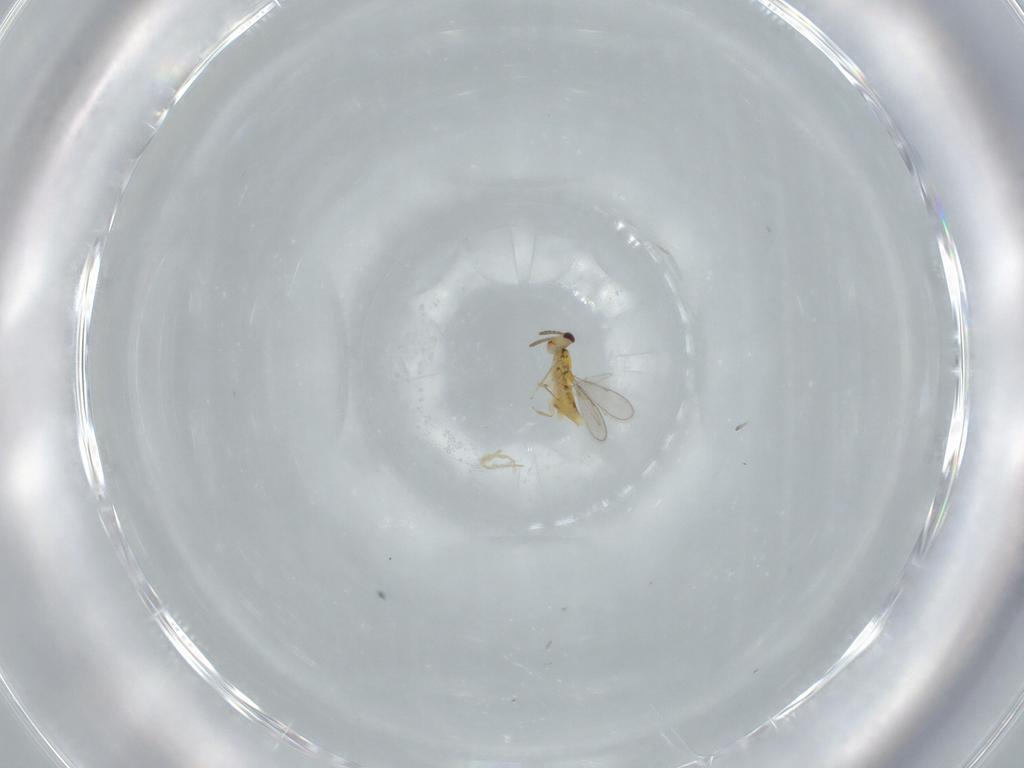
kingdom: Animalia
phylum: Arthropoda
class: Insecta
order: Hymenoptera
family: Aphelinidae
